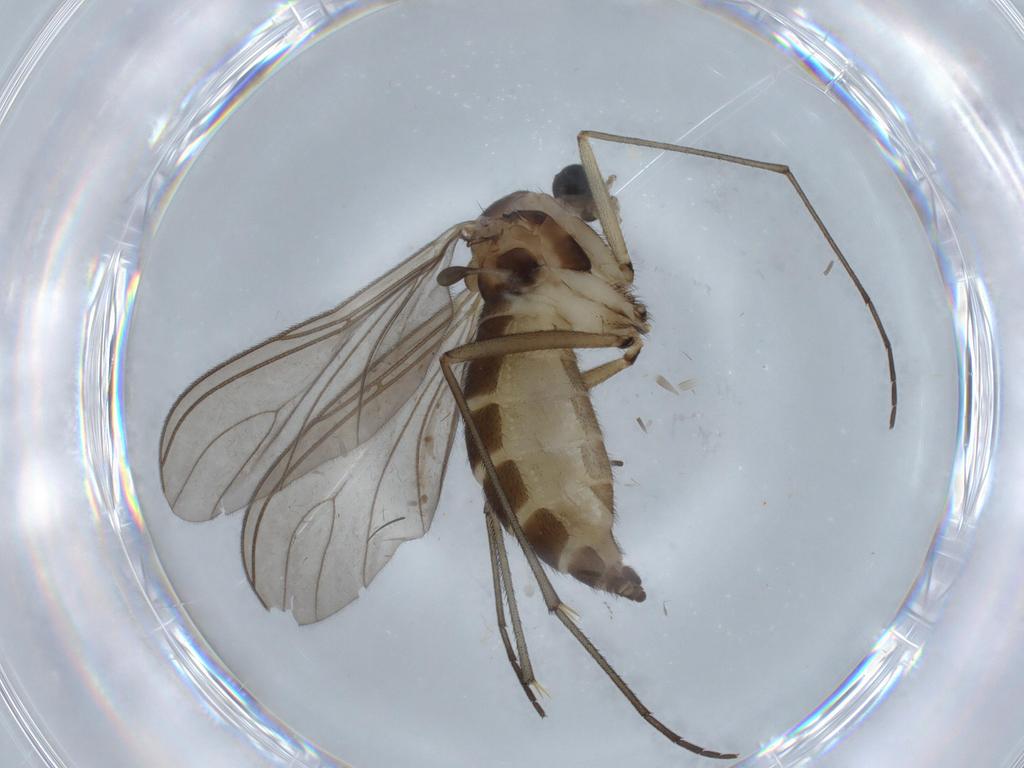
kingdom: Animalia
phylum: Arthropoda
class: Insecta
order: Diptera
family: Sciaridae
